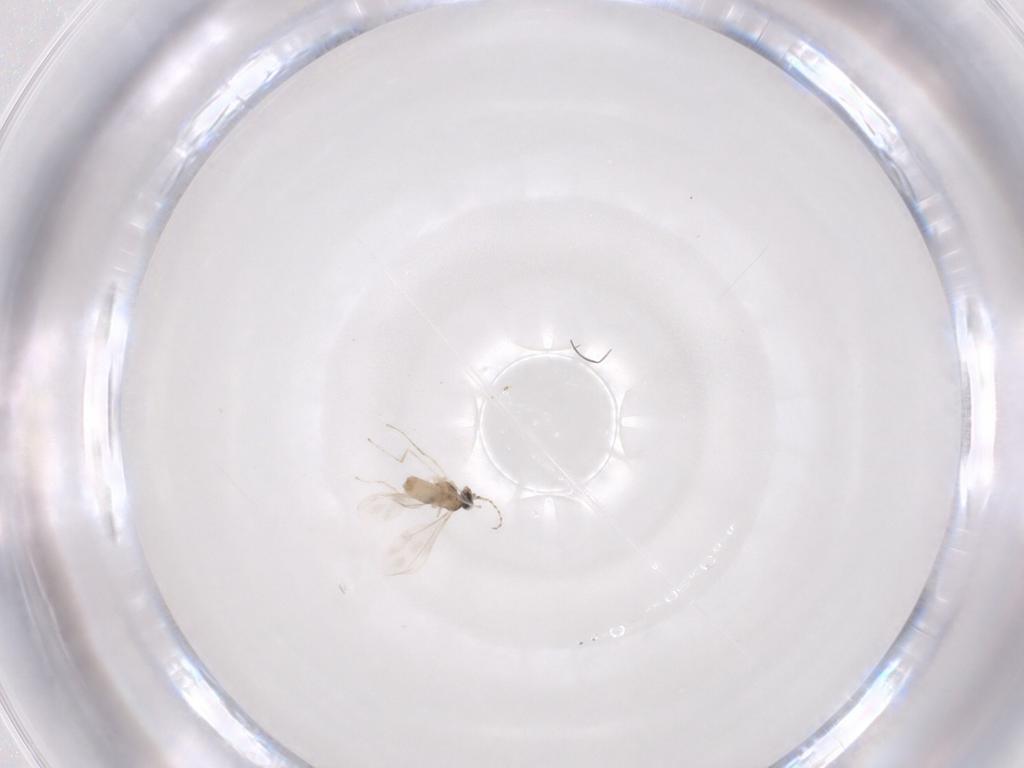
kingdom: Animalia
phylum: Arthropoda
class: Insecta
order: Diptera
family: Cecidomyiidae
